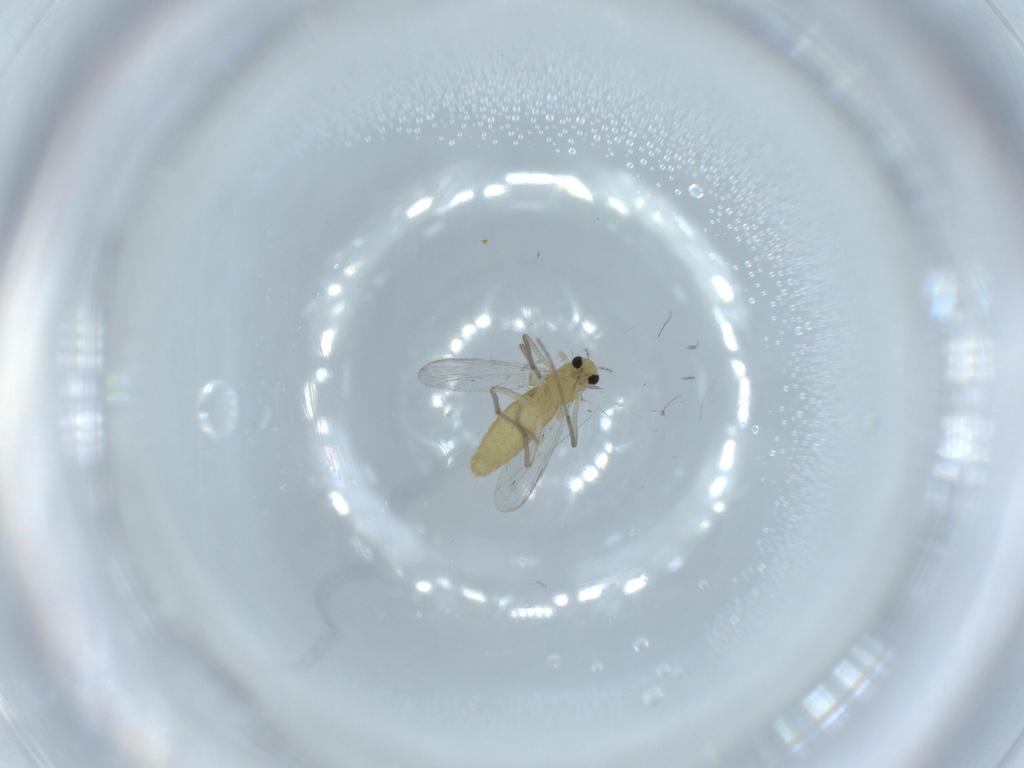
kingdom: Animalia
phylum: Arthropoda
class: Insecta
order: Diptera
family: Chironomidae
